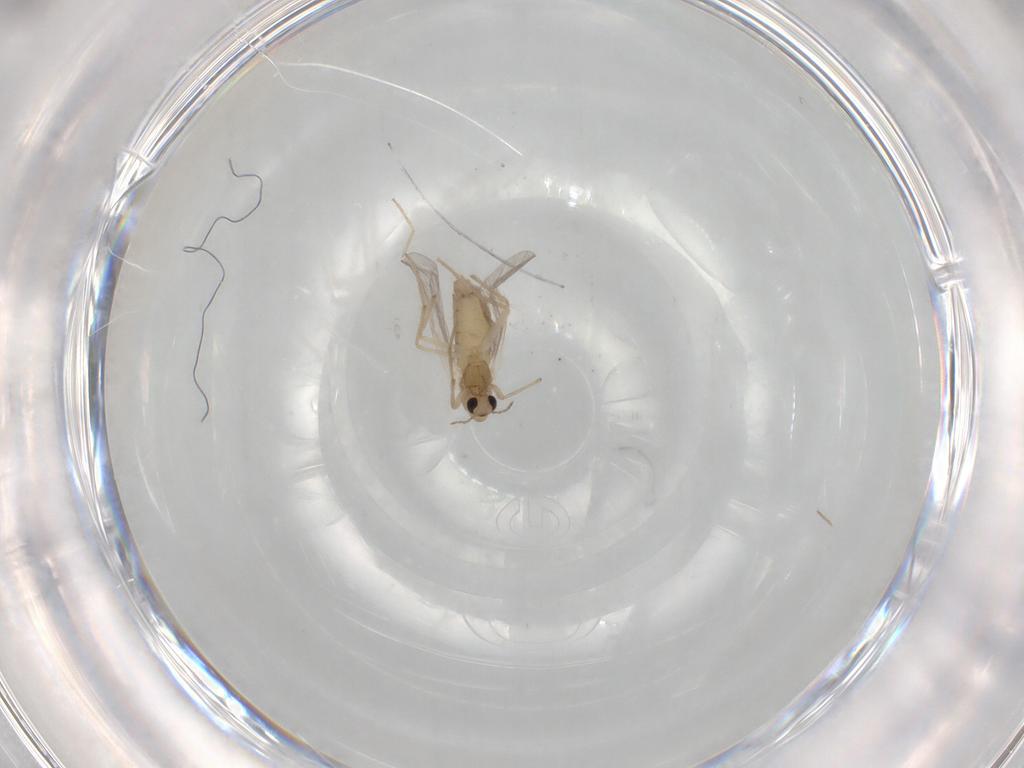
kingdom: Animalia
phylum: Arthropoda
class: Insecta
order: Diptera
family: Chironomidae
